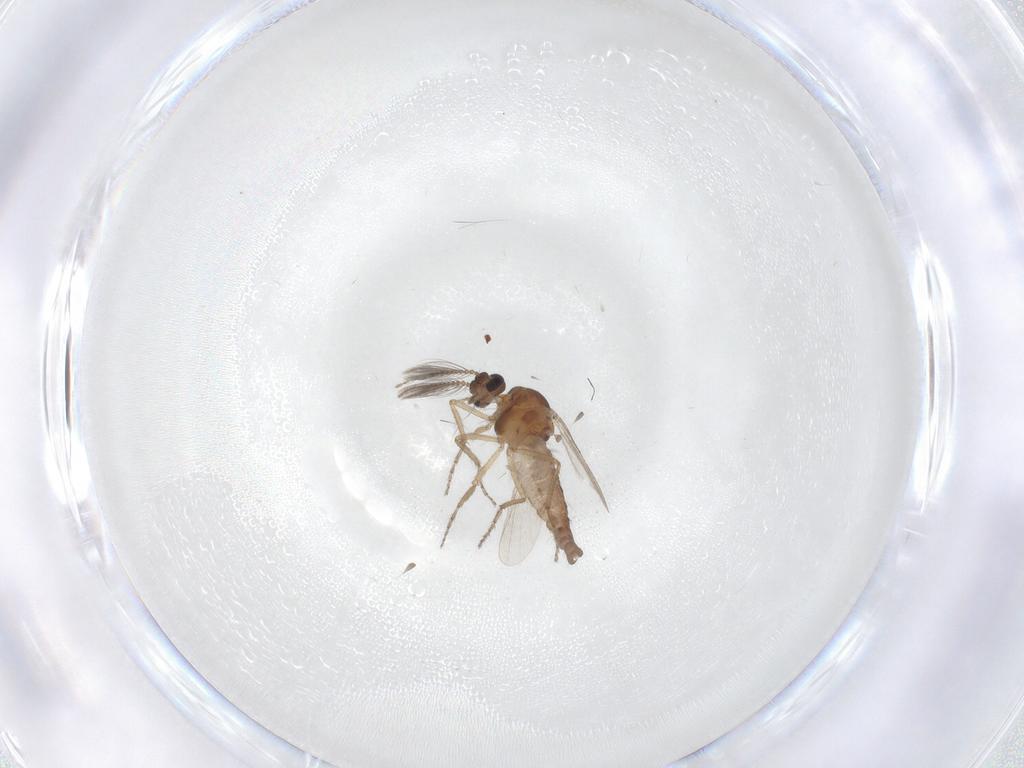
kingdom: Animalia
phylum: Arthropoda
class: Insecta
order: Diptera
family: Ceratopogonidae
